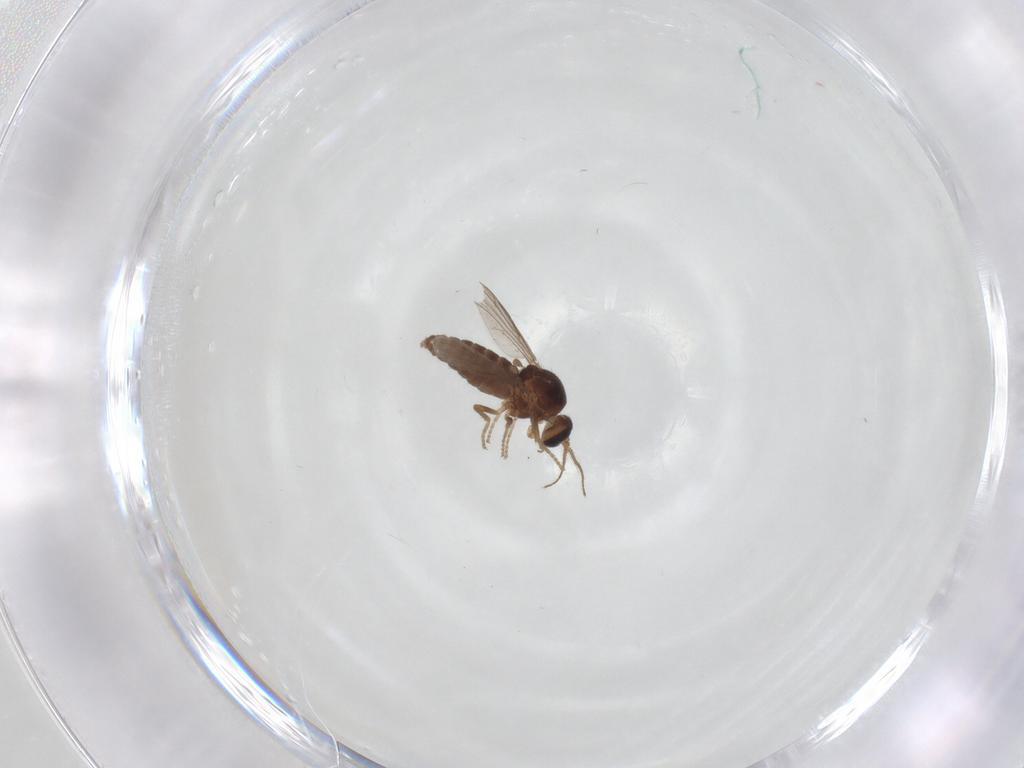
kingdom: Animalia
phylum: Arthropoda
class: Insecta
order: Diptera
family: Ceratopogonidae
